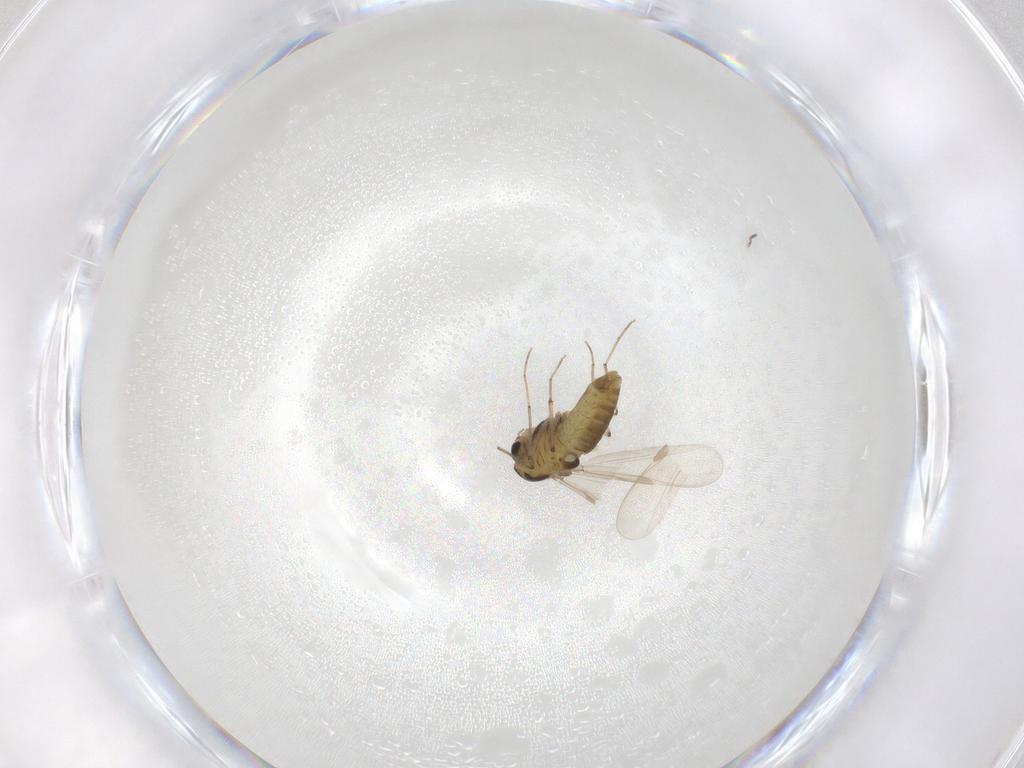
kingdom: Animalia
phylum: Arthropoda
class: Insecta
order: Diptera
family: Chironomidae
